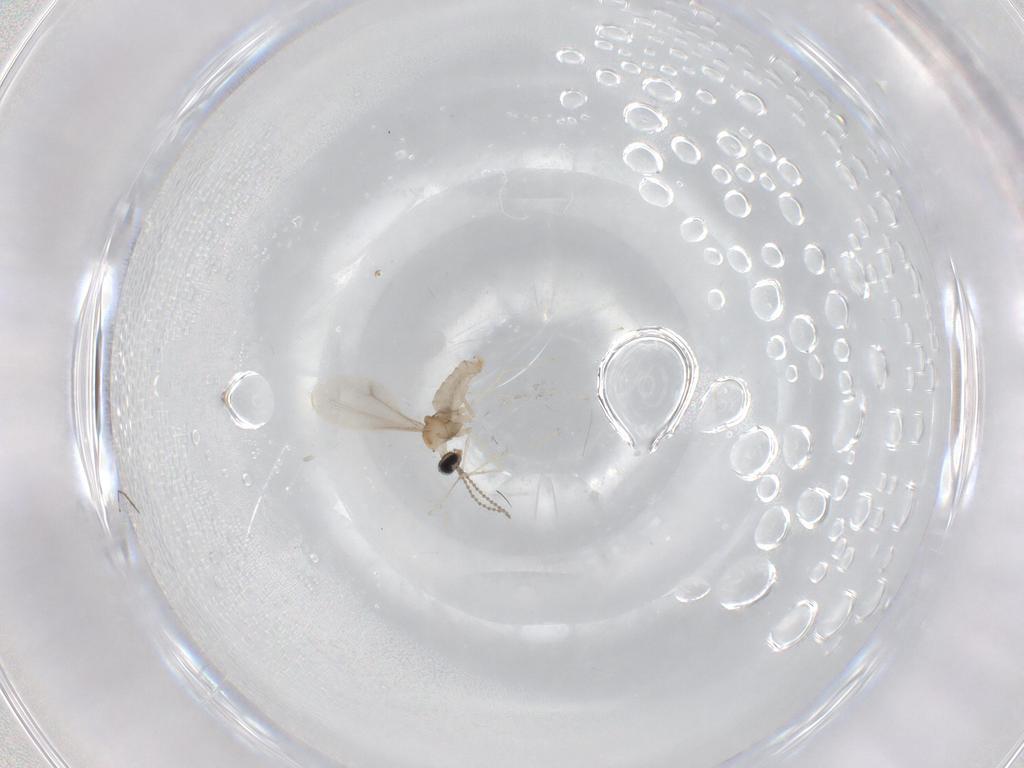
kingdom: Animalia
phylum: Arthropoda
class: Insecta
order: Diptera
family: Cecidomyiidae
